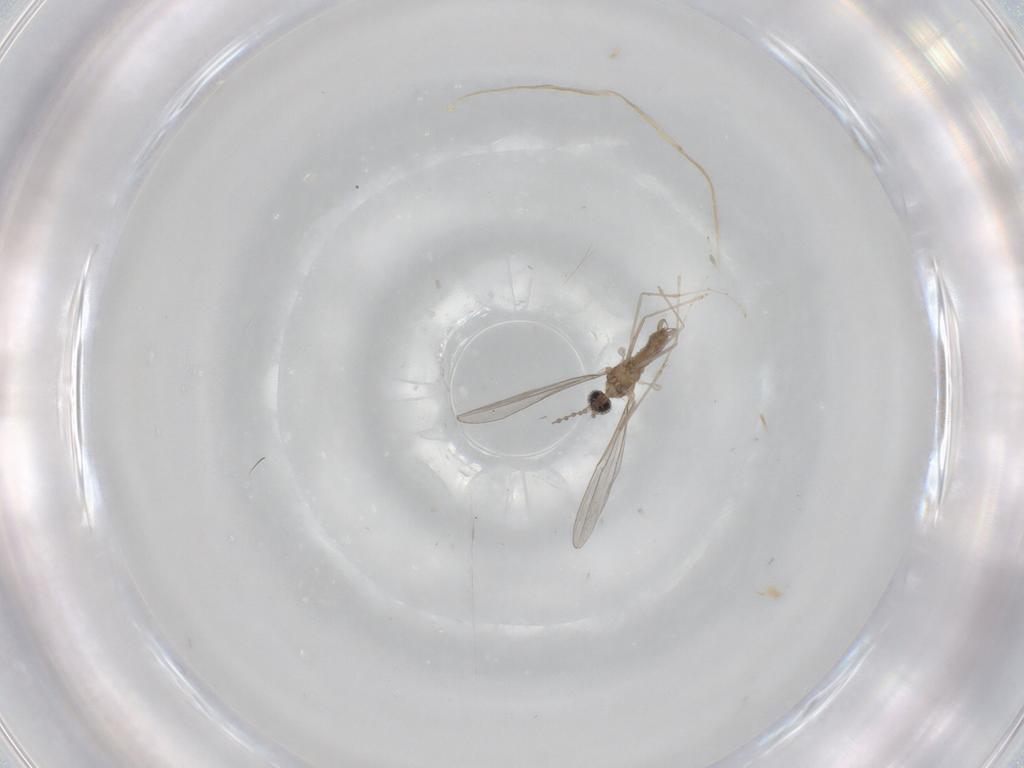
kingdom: Animalia
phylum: Arthropoda
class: Insecta
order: Diptera
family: Cecidomyiidae
